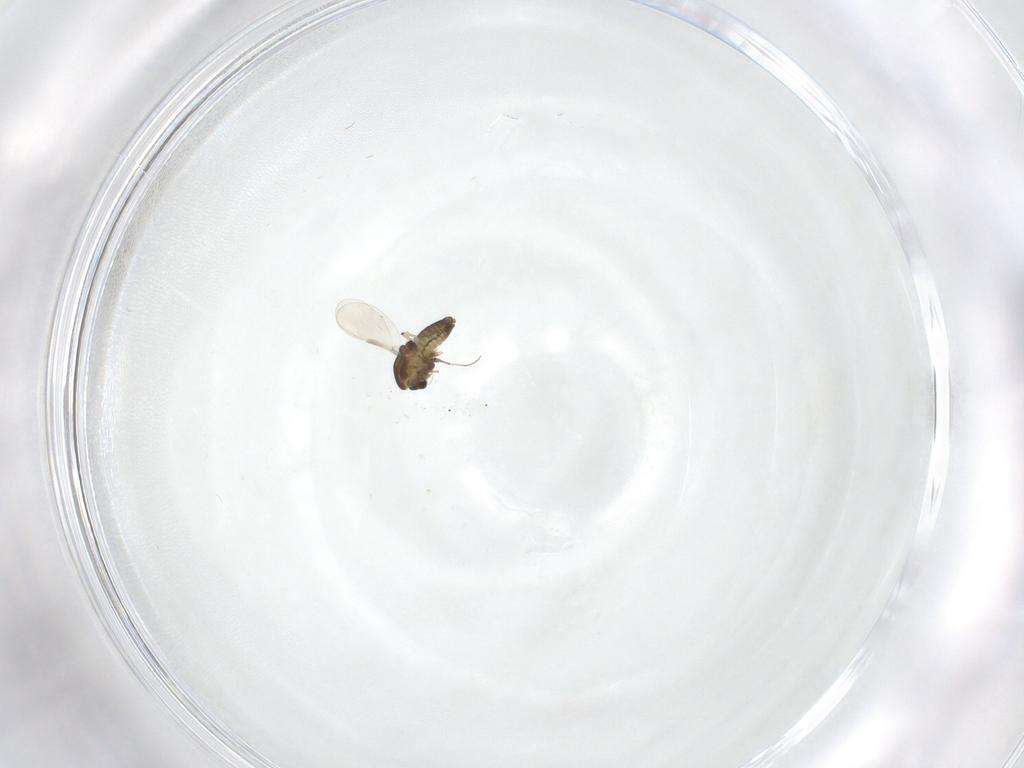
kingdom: Animalia
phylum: Arthropoda
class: Insecta
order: Diptera
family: Chironomidae
